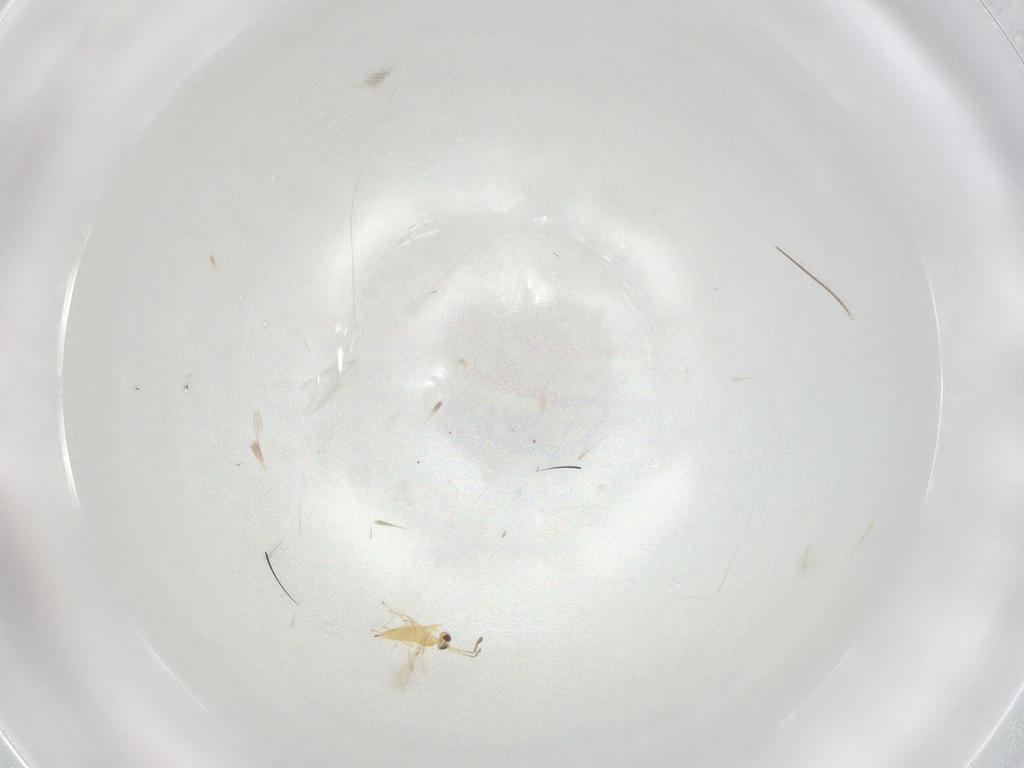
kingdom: Animalia
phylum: Arthropoda
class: Insecta
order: Hymenoptera
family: Mymaridae
